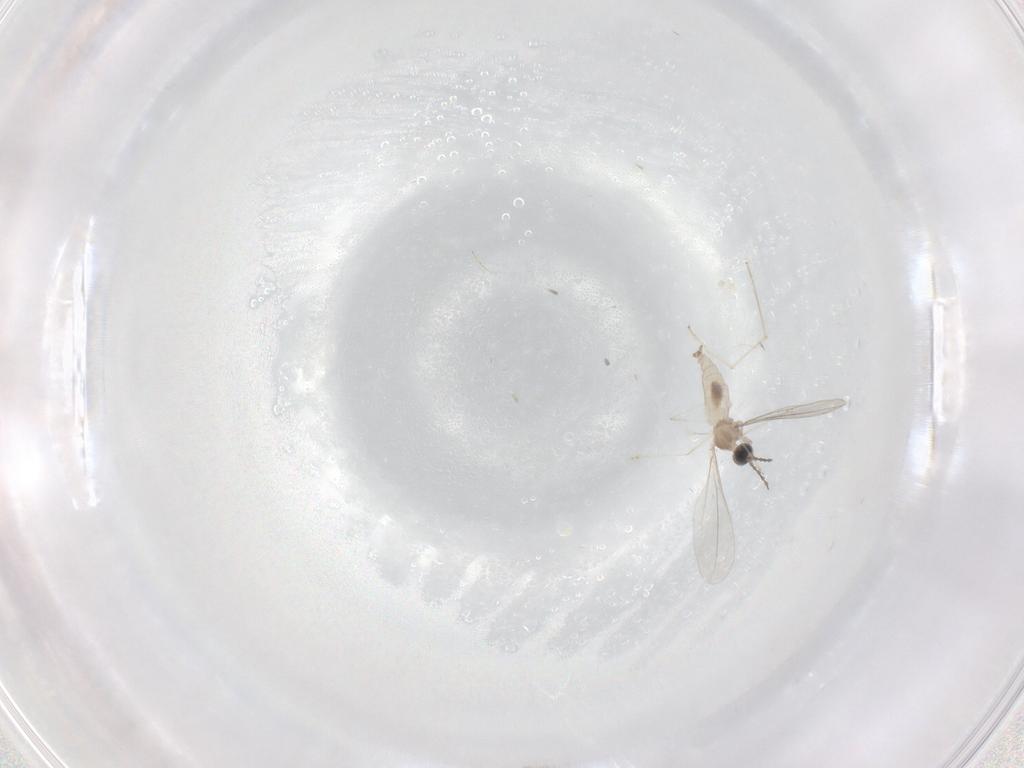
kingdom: Animalia
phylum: Arthropoda
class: Insecta
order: Diptera
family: Cecidomyiidae
